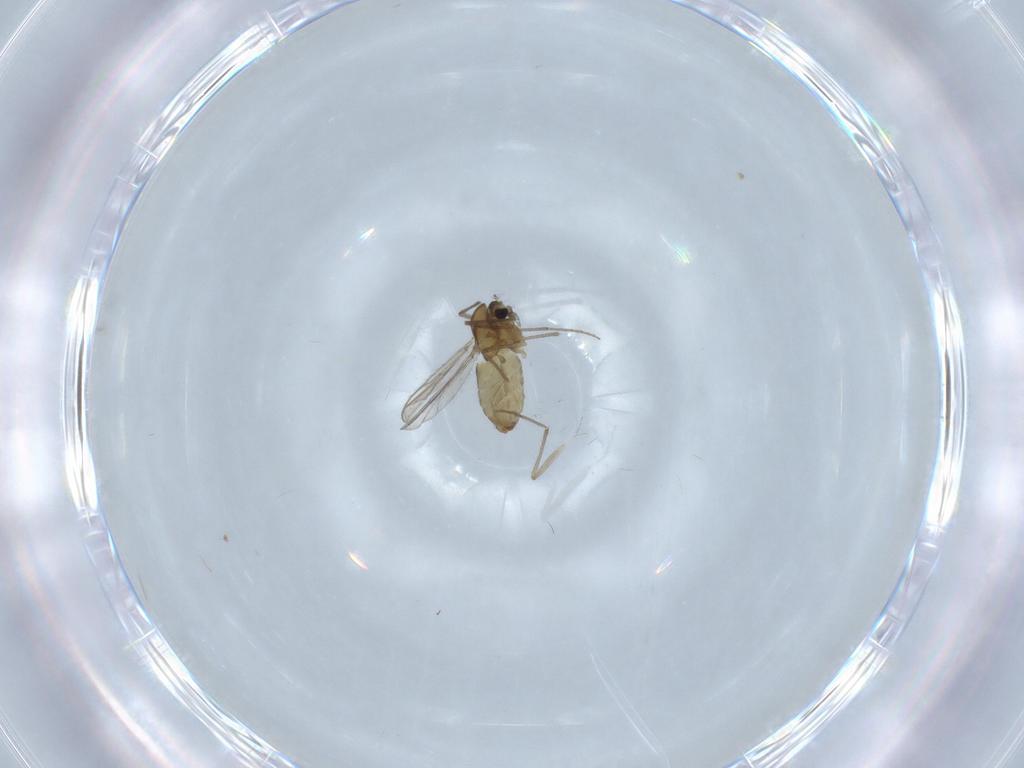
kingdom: Animalia
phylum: Arthropoda
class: Insecta
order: Diptera
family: Chironomidae
